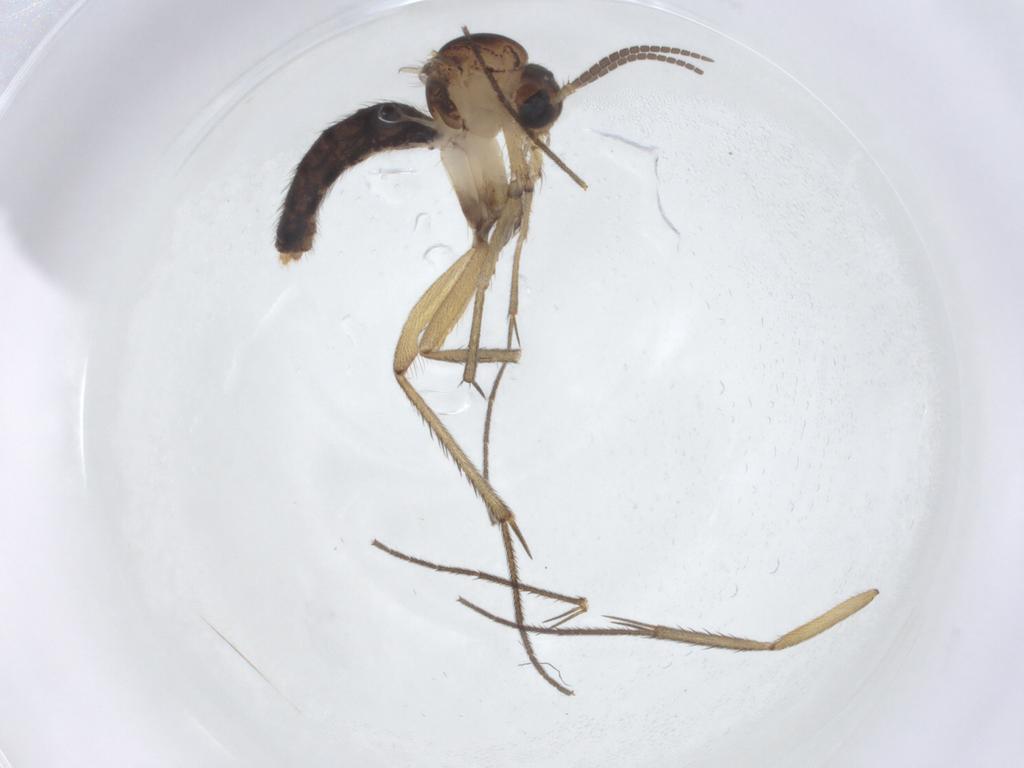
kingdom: Animalia
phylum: Arthropoda
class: Insecta
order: Diptera
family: Mycetophilidae
